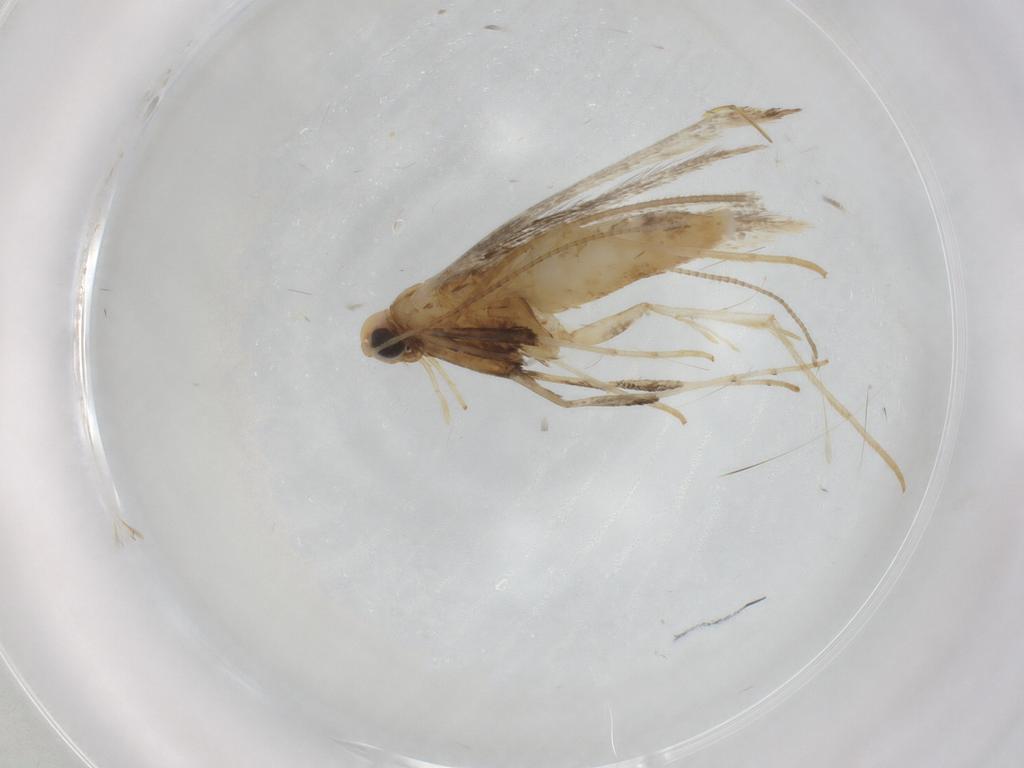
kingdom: Animalia
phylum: Arthropoda
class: Insecta
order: Lepidoptera
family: Gracillariidae
